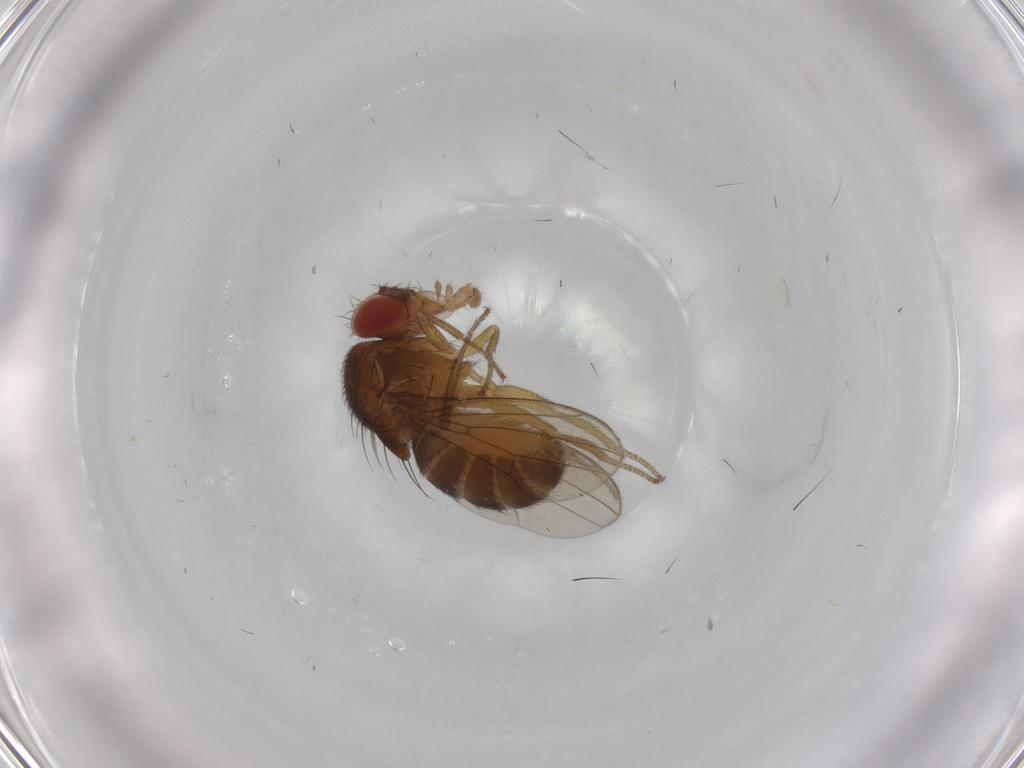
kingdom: Animalia
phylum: Arthropoda
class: Insecta
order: Diptera
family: Drosophilidae
